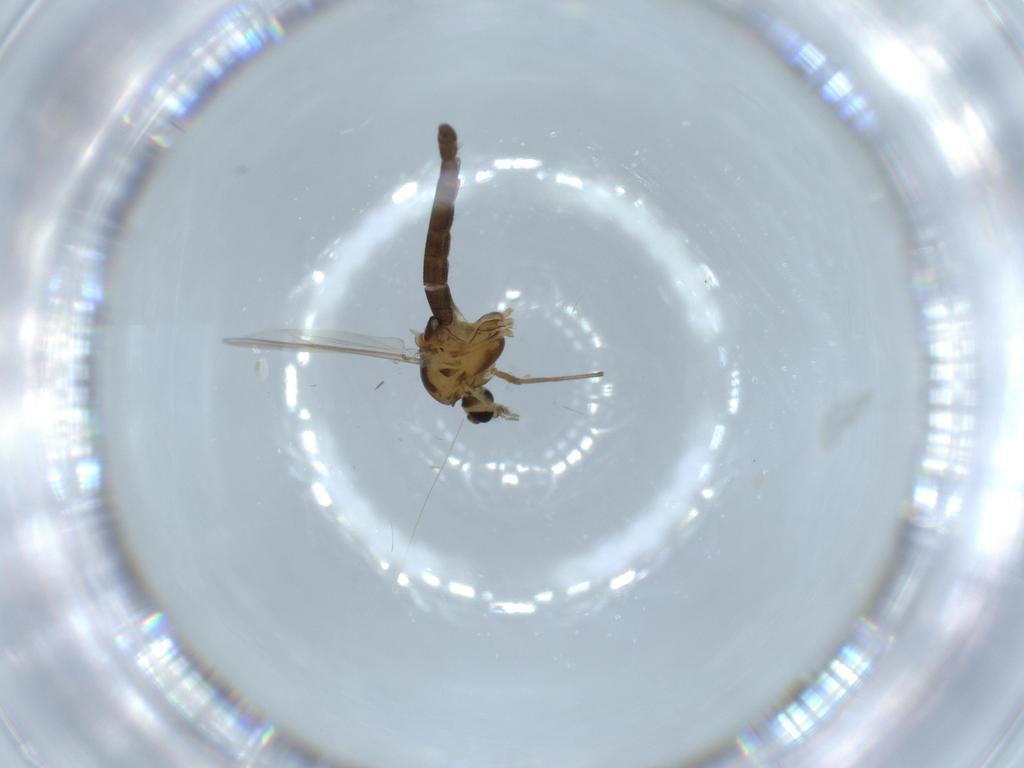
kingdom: Animalia
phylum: Arthropoda
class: Insecta
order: Diptera
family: Chironomidae
